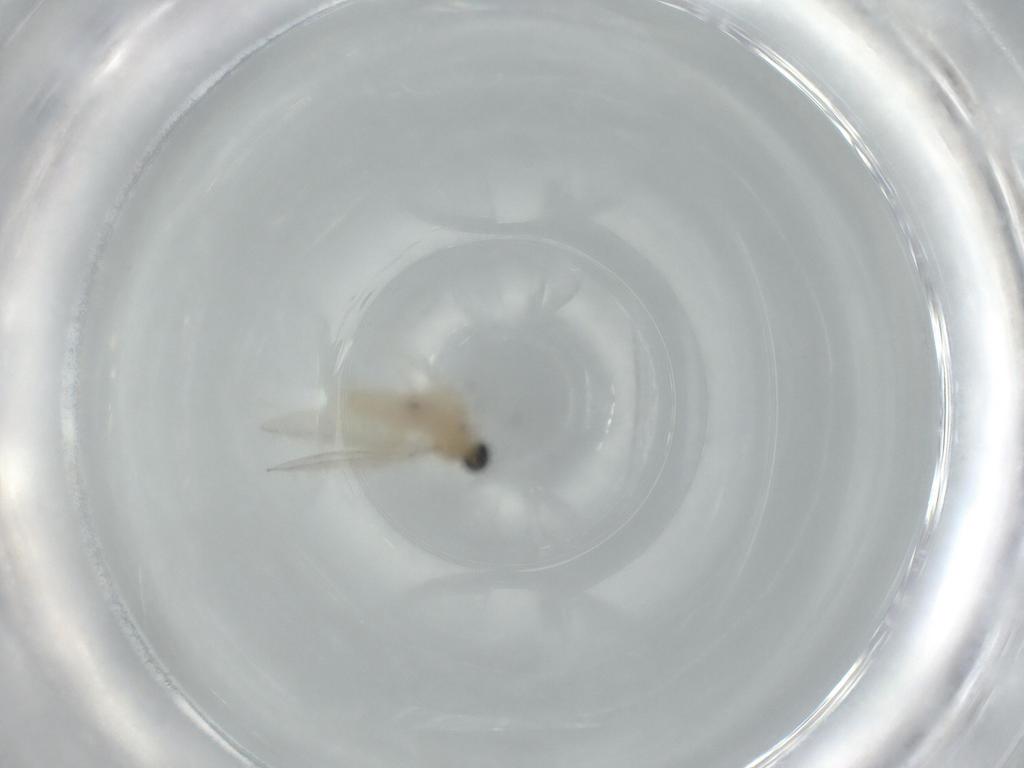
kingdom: Animalia
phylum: Arthropoda
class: Insecta
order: Diptera
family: Cecidomyiidae
